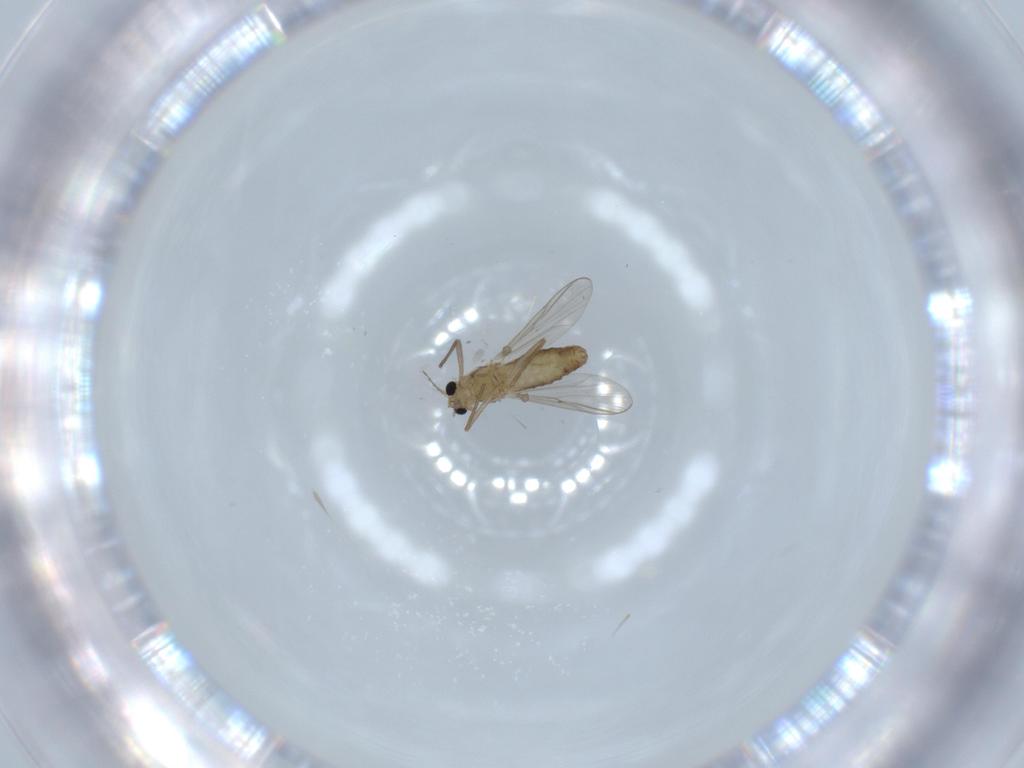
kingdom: Animalia
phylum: Arthropoda
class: Insecta
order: Diptera
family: Chironomidae
